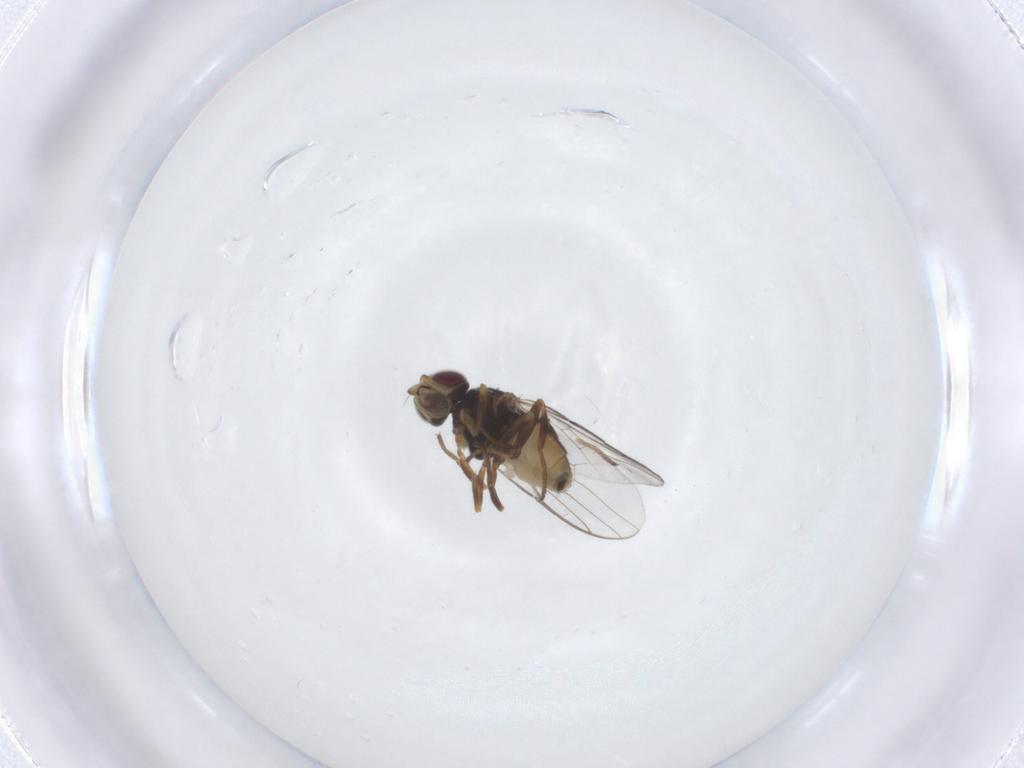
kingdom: Animalia
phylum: Arthropoda
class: Insecta
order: Diptera
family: Chloropidae
